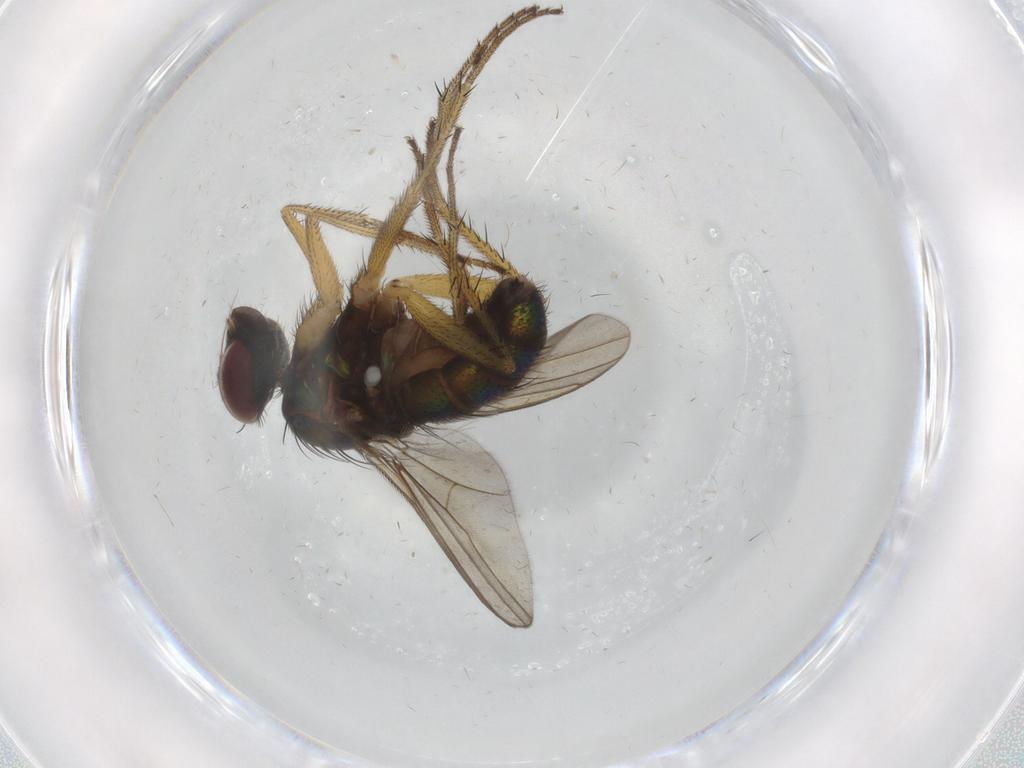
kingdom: Animalia
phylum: Arthropoda
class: Insecta
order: Diptera
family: Dolichopodidae
